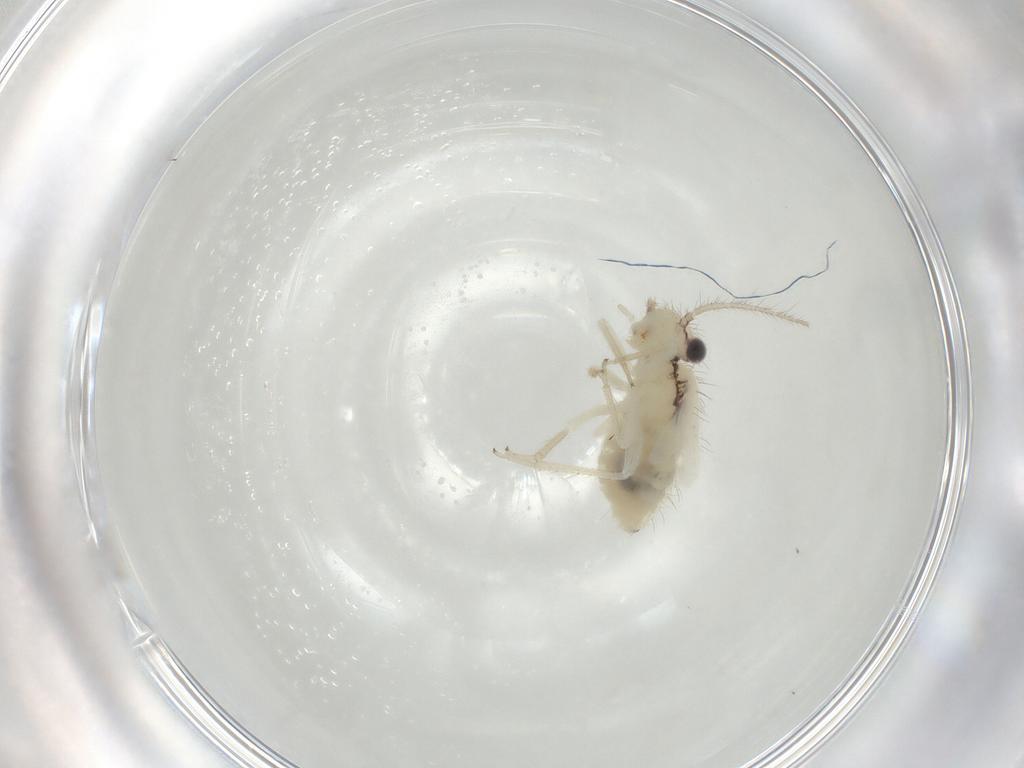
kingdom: Animalia
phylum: Arthropoda
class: Insecta
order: Psocodea
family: Philotarsidae
